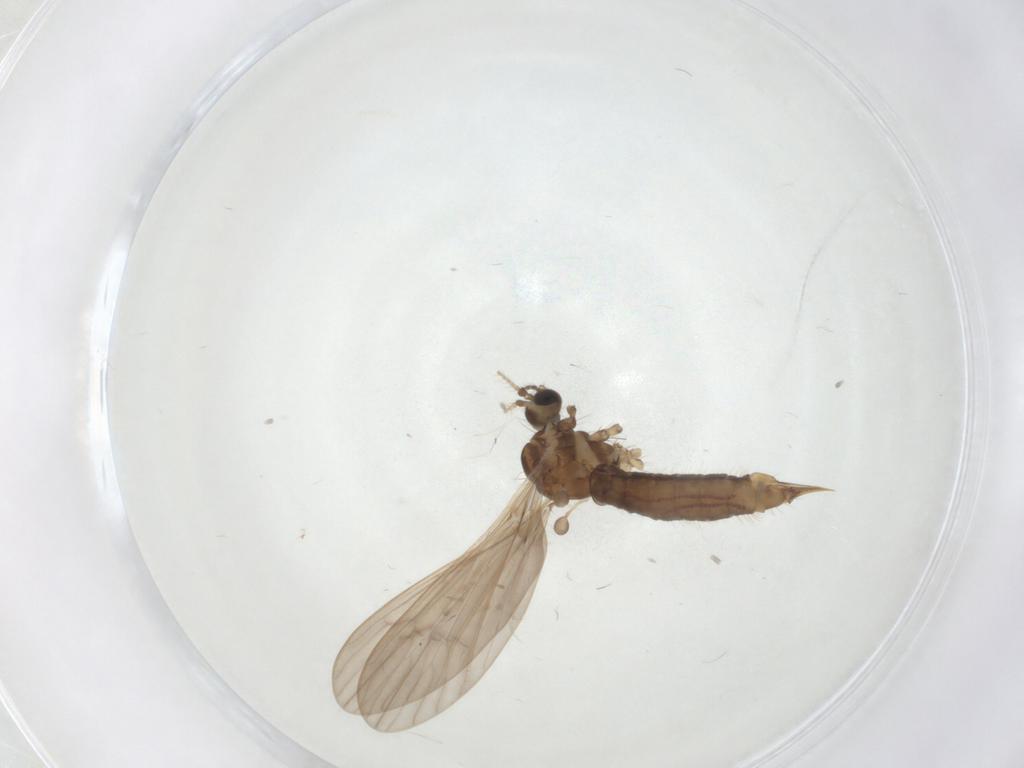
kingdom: Animalia
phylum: Arthropoda
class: Insecta
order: Diptera
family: Limoniidae
